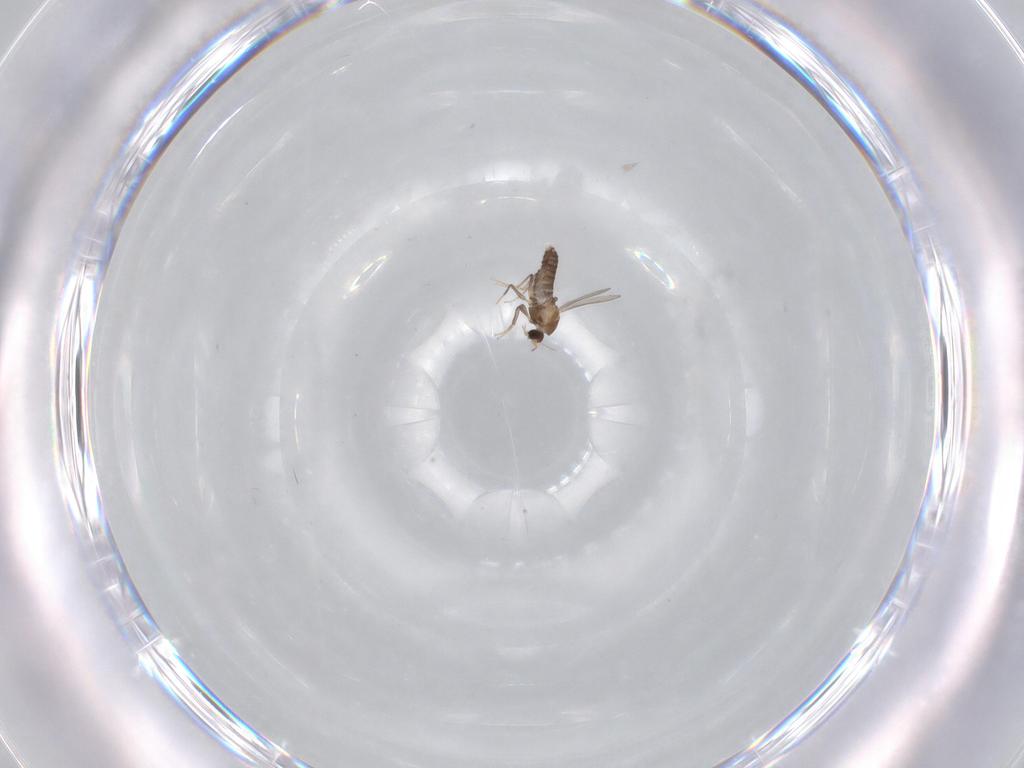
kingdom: Animalia
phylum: Arthropoda
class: Insecta
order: Diptera
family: Chironomidae
